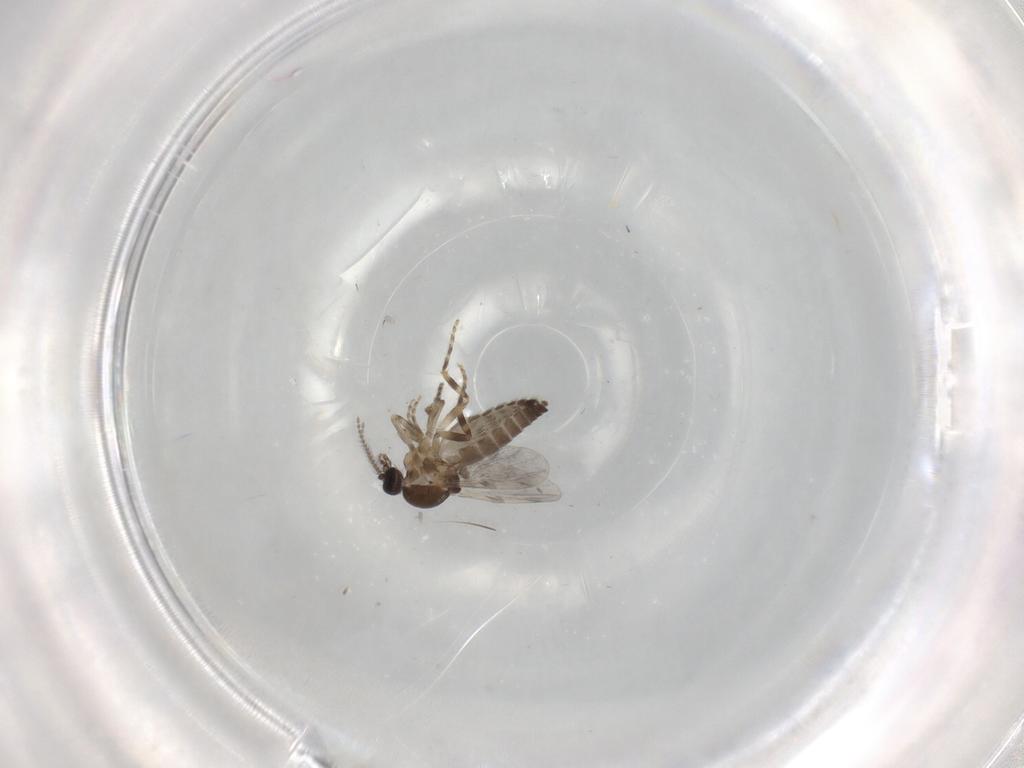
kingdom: Animalia
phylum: Arthropoda
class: Insecta
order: Diptera
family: Ceratopogonidae
